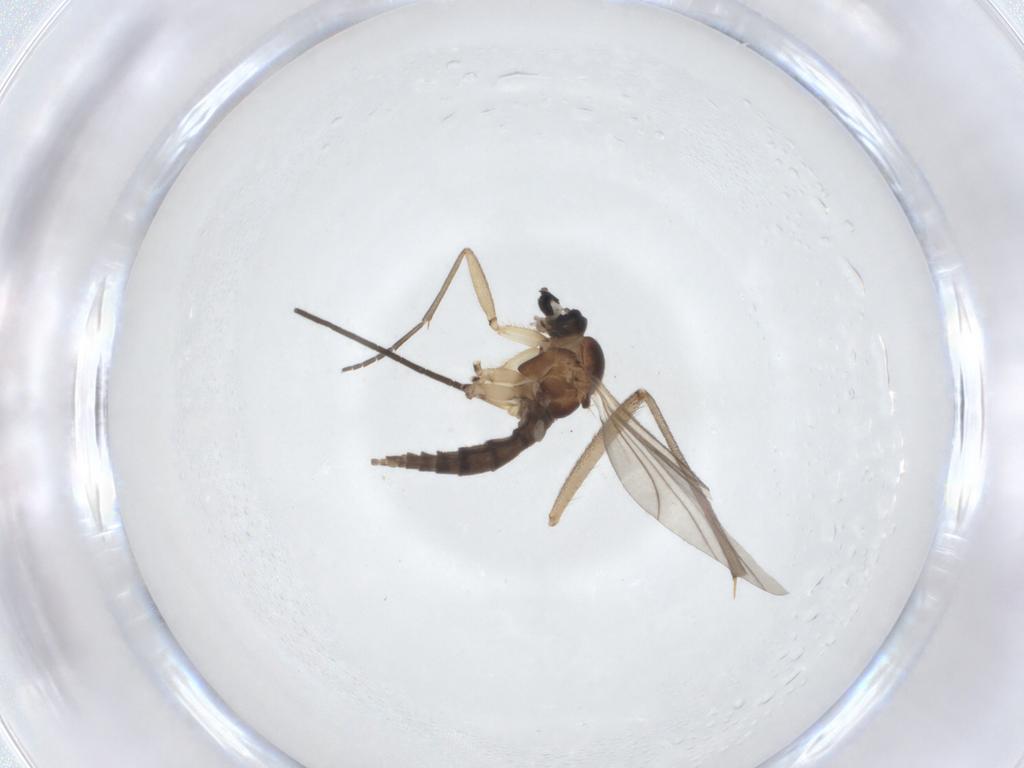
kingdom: Animalia
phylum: Arthropoda
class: Insecta
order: Diptera
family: Sciaridae
